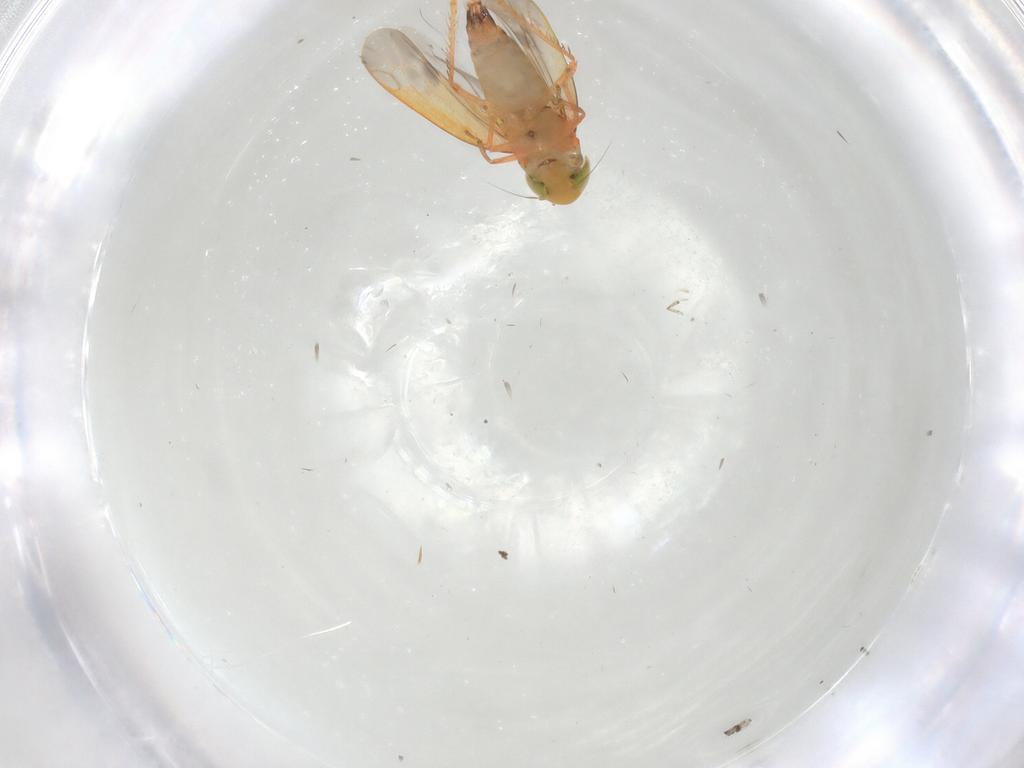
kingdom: Animalia
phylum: Arthropoda
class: Insecta
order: Hemiptera
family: Cicadellidae
